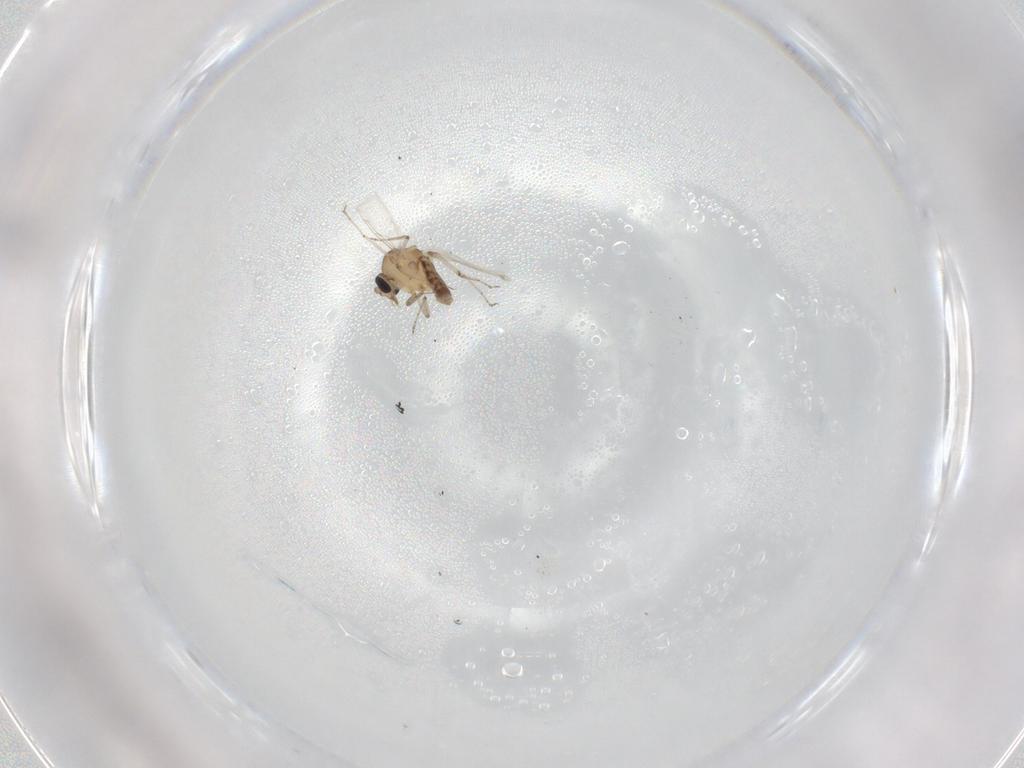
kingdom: Animalia
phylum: Arthropoda
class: Insecta
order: Diptera
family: Ceratopogonidae
